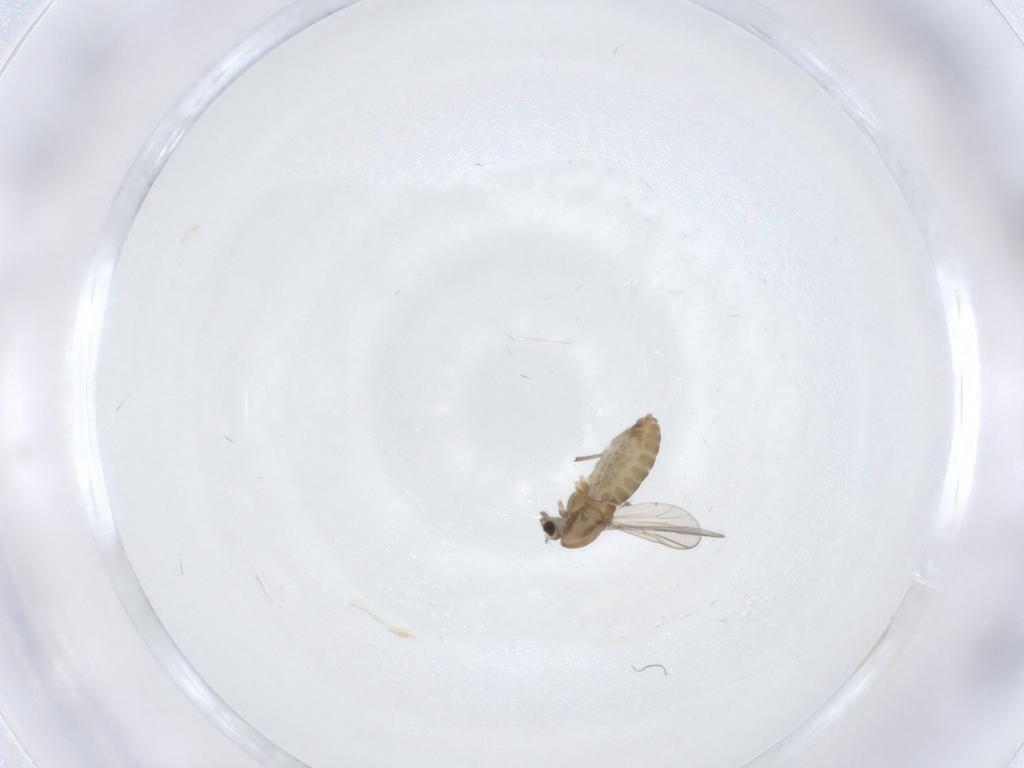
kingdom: Animalia
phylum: Arthropoda
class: Insecta
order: Diptera
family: Chironomidae
